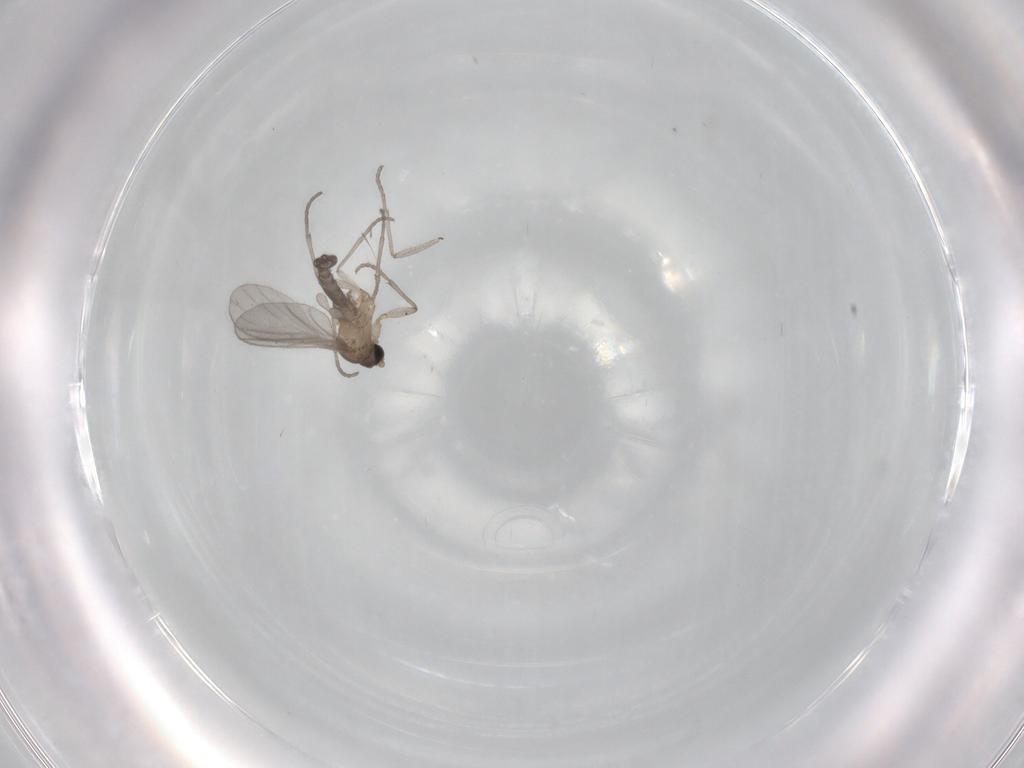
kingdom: Animalia
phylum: Arthropoda
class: Insecta
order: Diptera
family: Sciaridae
